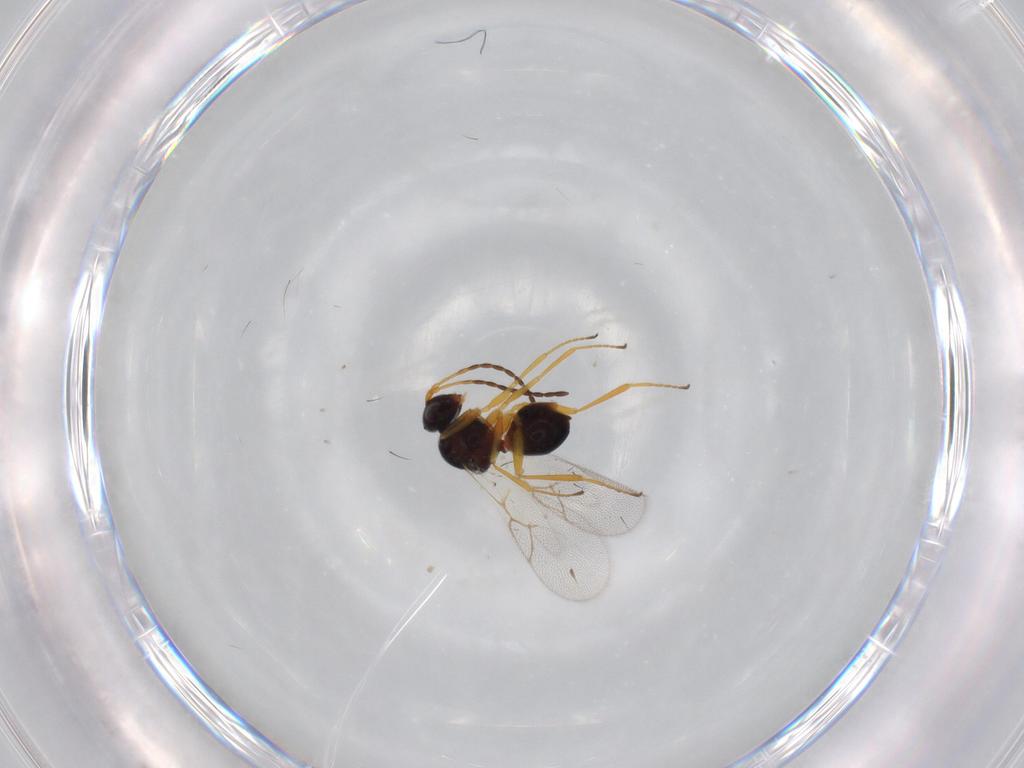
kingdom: Animalia
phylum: Arthropoda
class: Insecta
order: Hymenoptera
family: Figitidae
